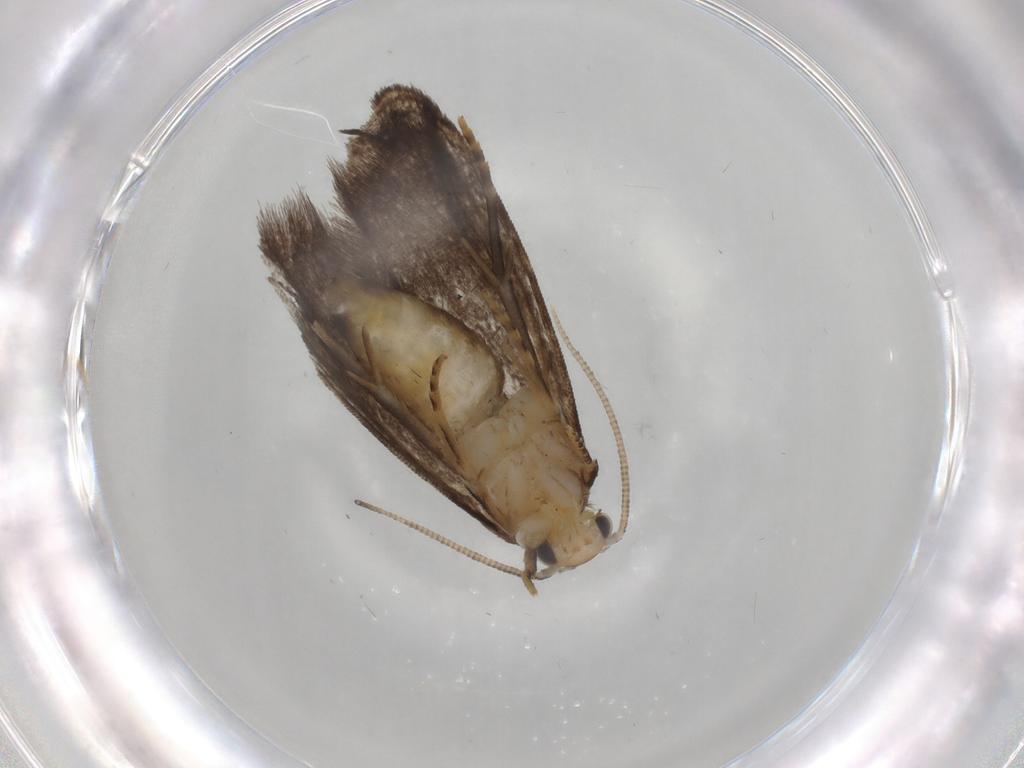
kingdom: Animalia
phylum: Arthropoda
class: Insecta
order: Lepidoptera
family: Dryadaulidae
